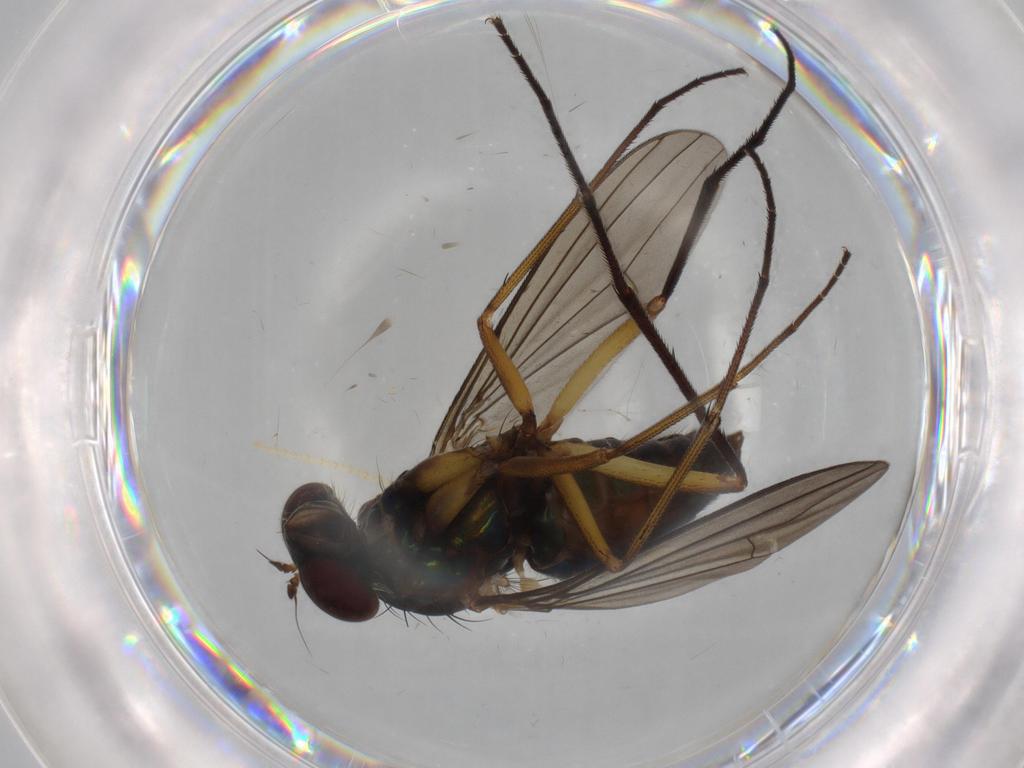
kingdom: Animalia
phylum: Arthropoda
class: Insecta
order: Diptera
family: Dolichopodidae
